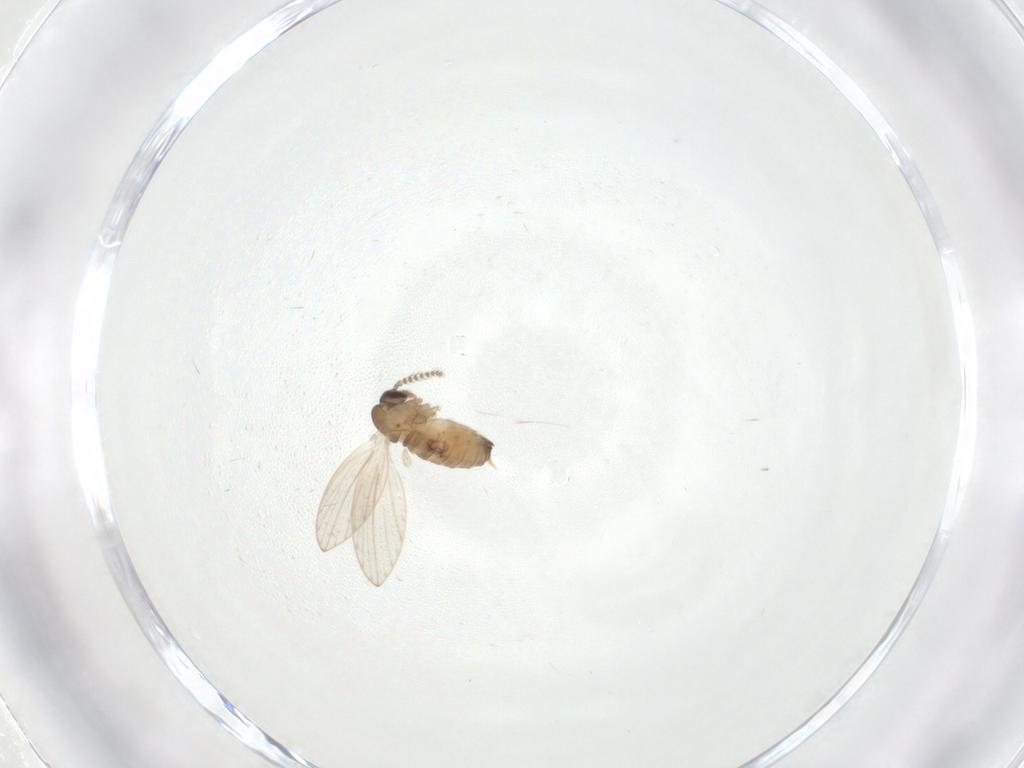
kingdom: Animalia
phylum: Arthropoda
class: Insecta
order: Diptera
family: Psychodidae
